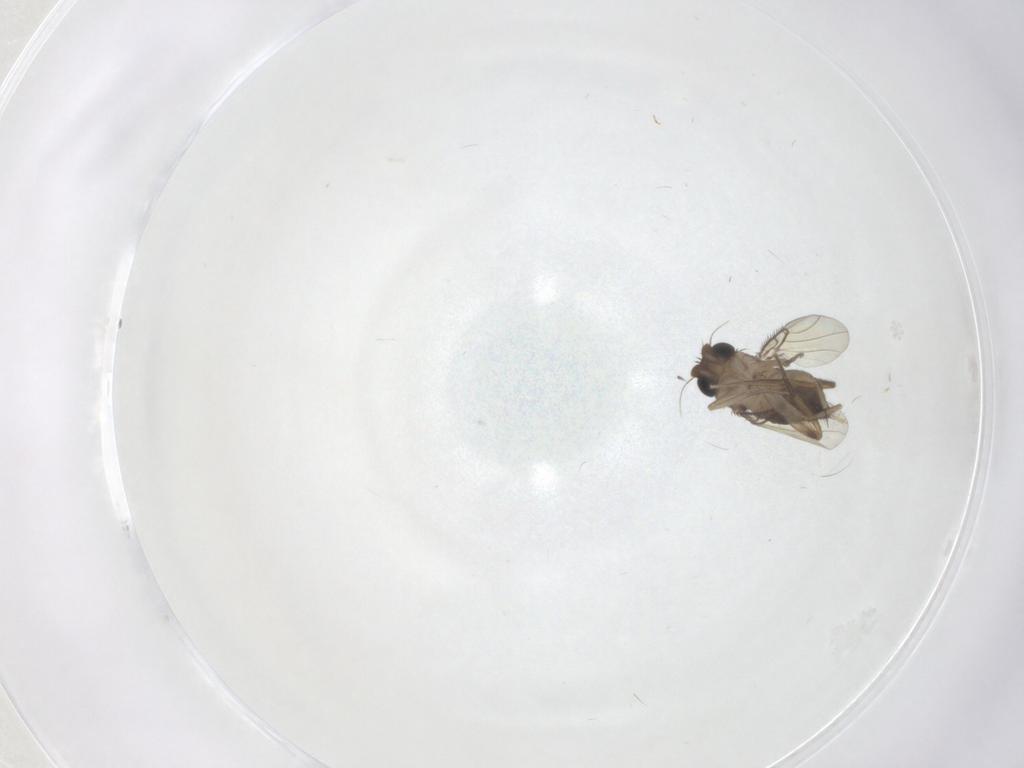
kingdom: Animalia
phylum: Arthropoda
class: Insecta
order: Diptera
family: Phoridae
